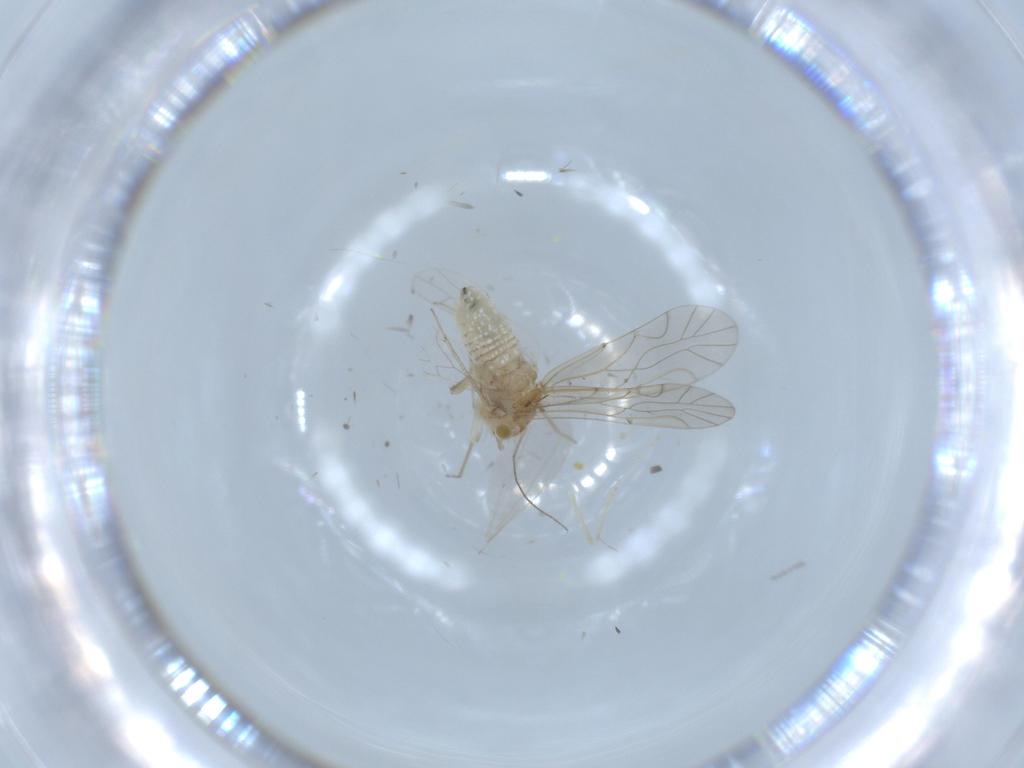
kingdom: Animalia
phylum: Arthropoda
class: Insecta
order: Psocodea
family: Lachesillidae
